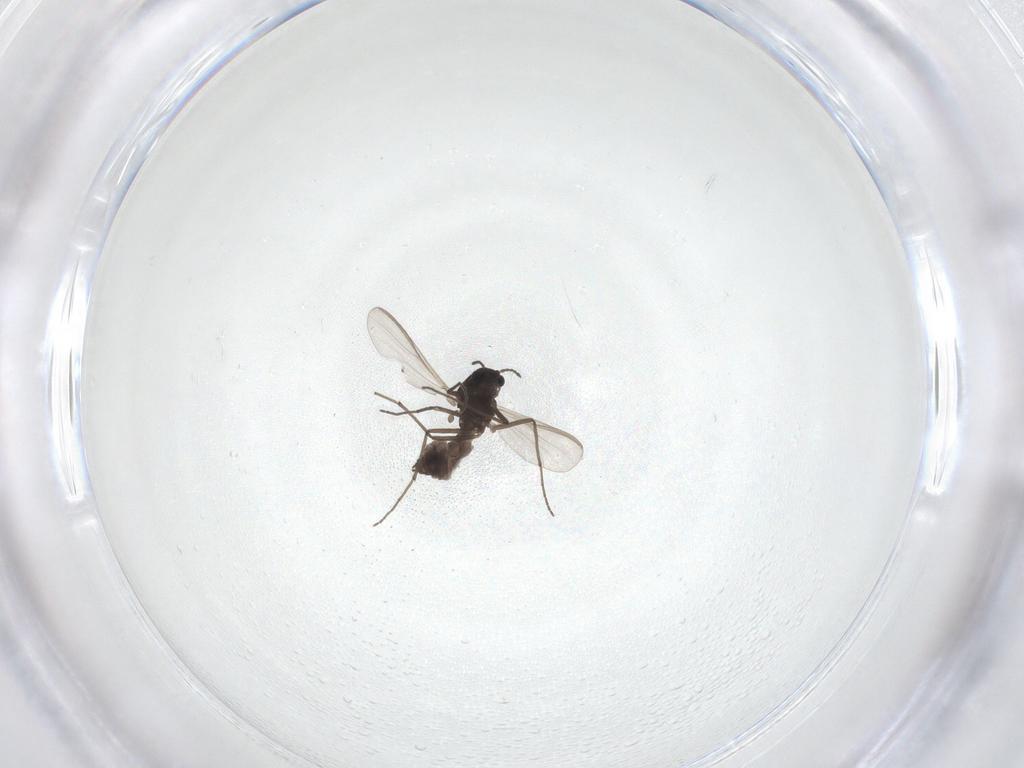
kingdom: Animalia
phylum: Arthropoda
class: Insecta
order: Diptera
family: Chironomidae
